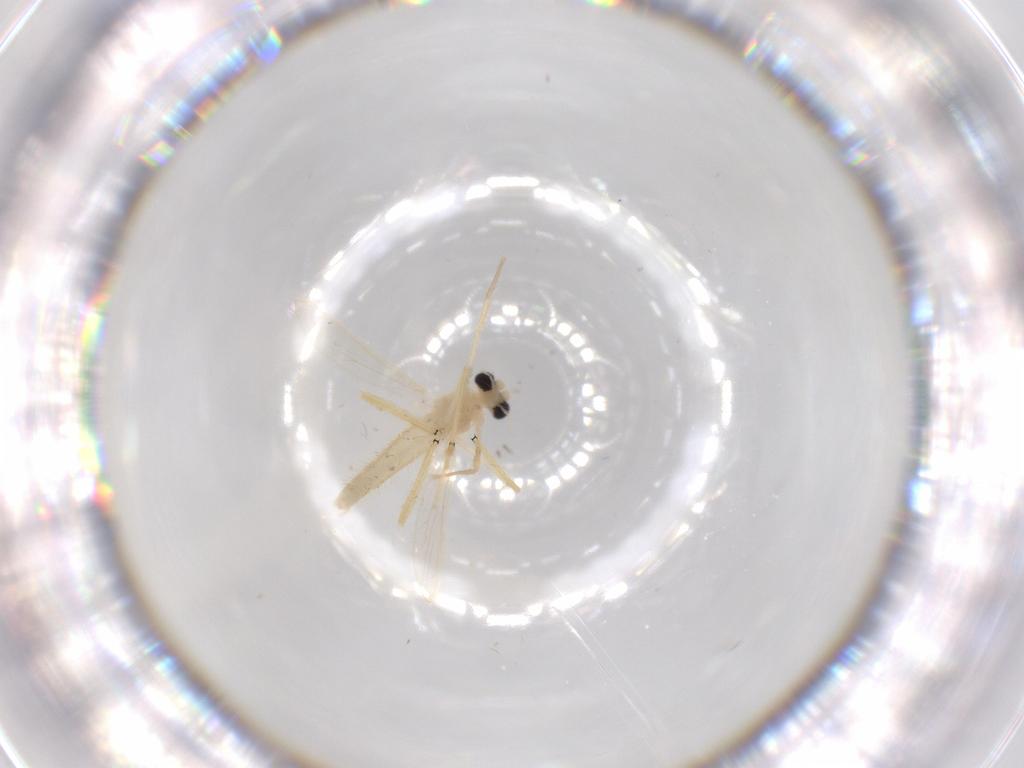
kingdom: Animalia
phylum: Arthropoda
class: Insecta
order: Diptera
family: Chironomidae
